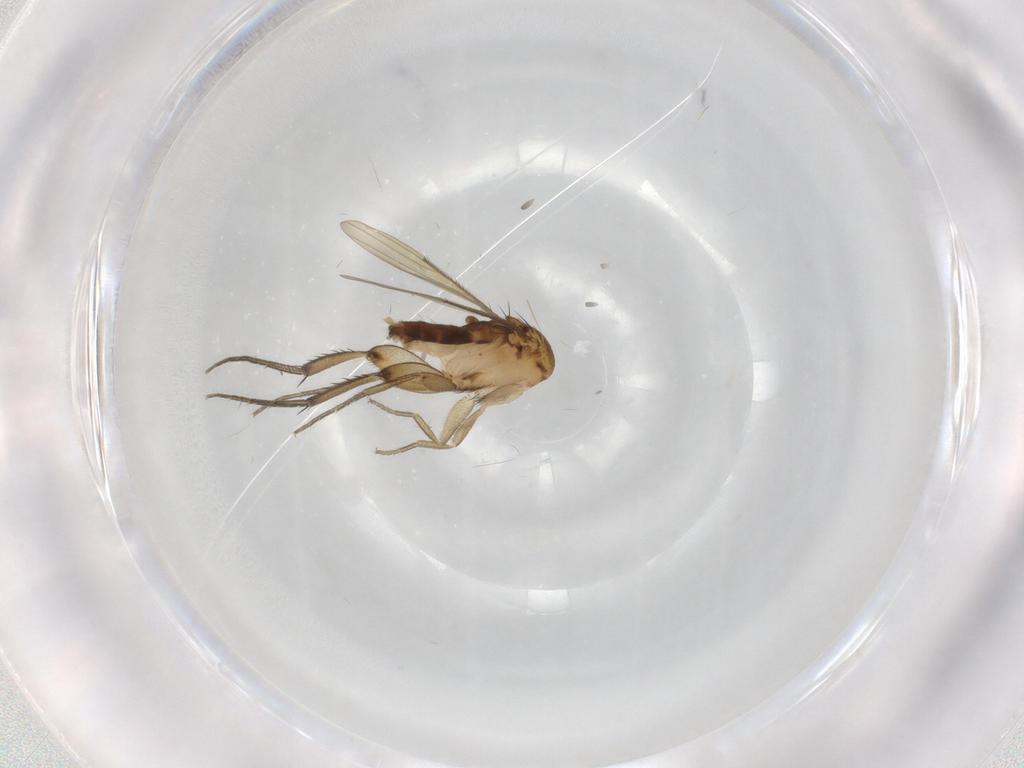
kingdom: Animalia
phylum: Arthropoda
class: Insecta
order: Diptera
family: Phoridae
